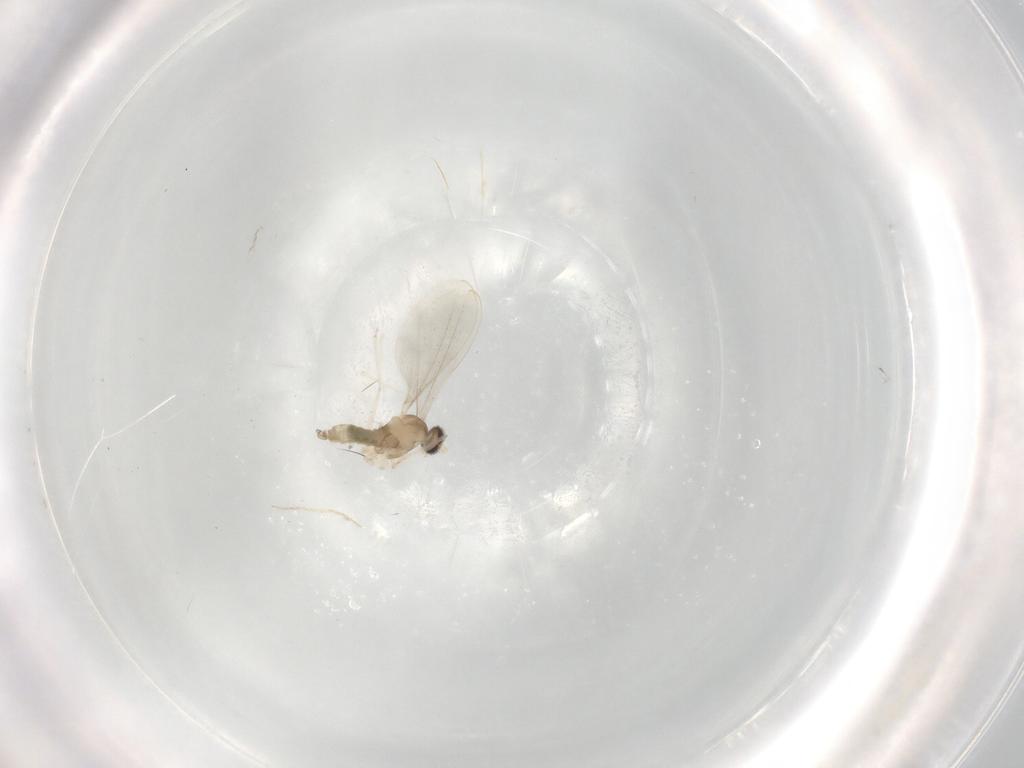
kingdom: Animalia
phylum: Arthropoda
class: Insecta
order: Diptera
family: Cecidomyiidae
